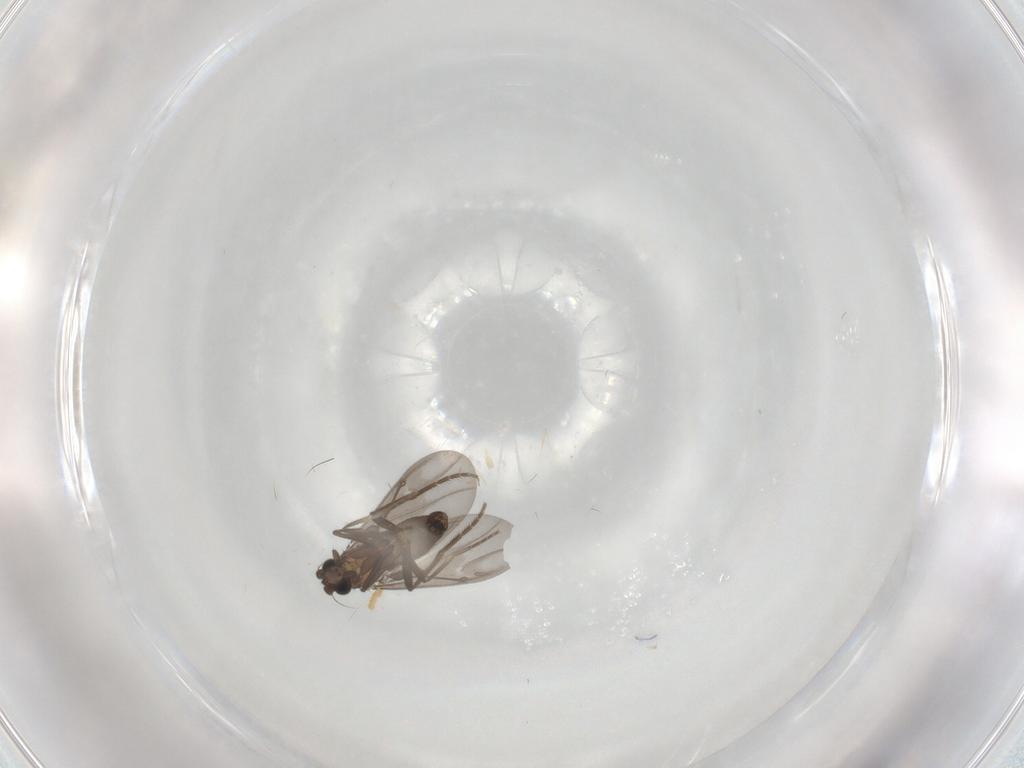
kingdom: Animalia
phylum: Arthropoda
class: Insecta
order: Diptera
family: Phoridae
